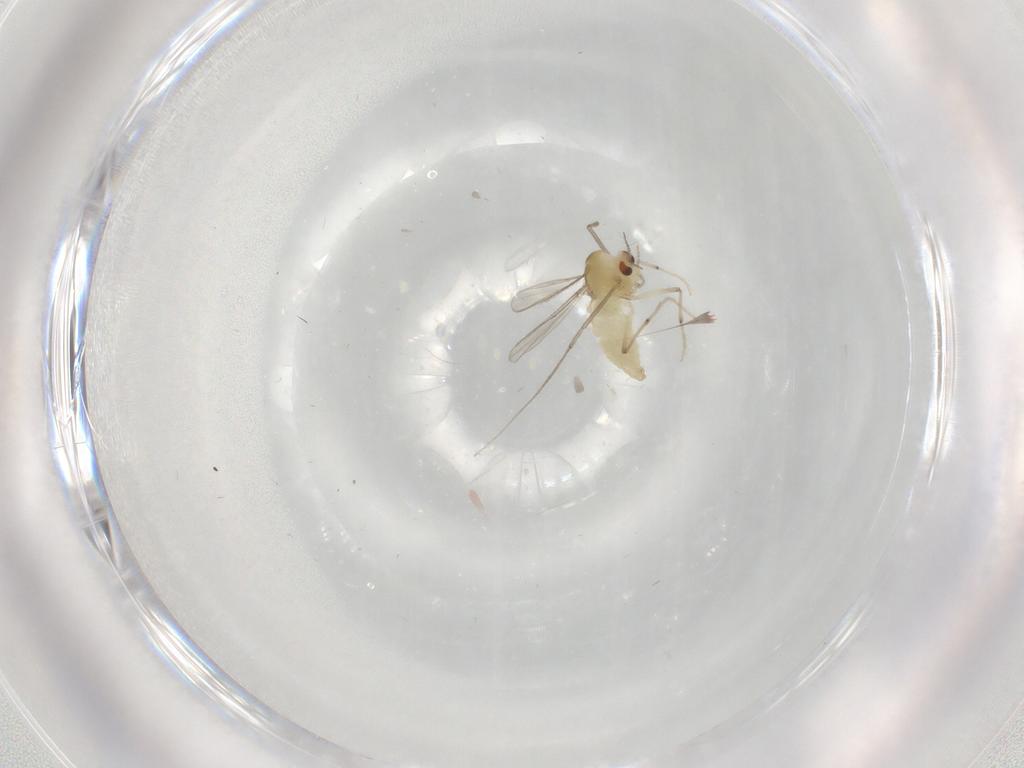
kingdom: Animalia
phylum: Arthropoda
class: Insecta
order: Diptera
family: Chironomidae
